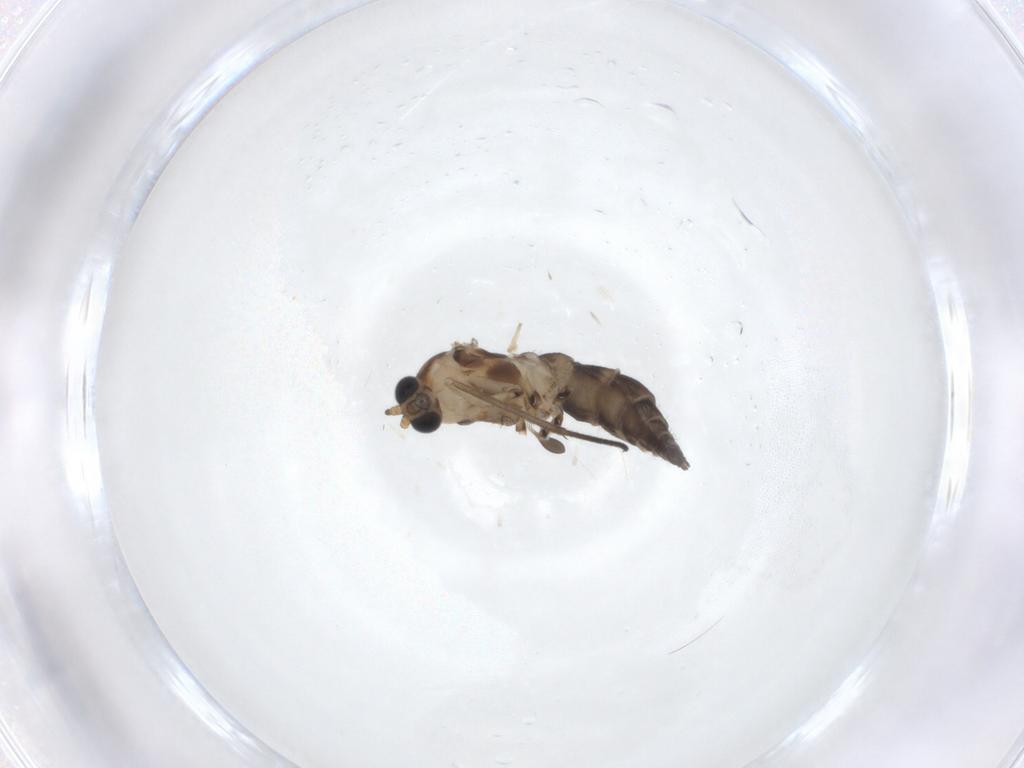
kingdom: Animalia
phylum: Arthropoda
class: Insecta
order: Diptera
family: Sciaridae
